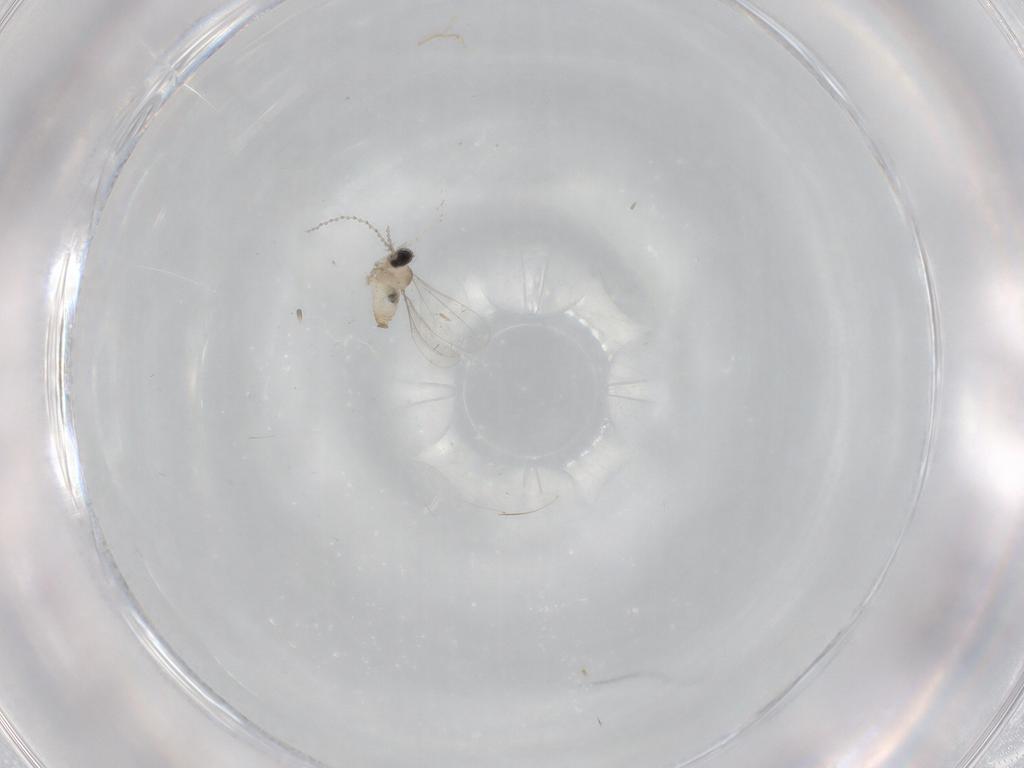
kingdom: Animalia
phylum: Arthropoda
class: Insecta
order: Diptera
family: Cecidomyiidae
